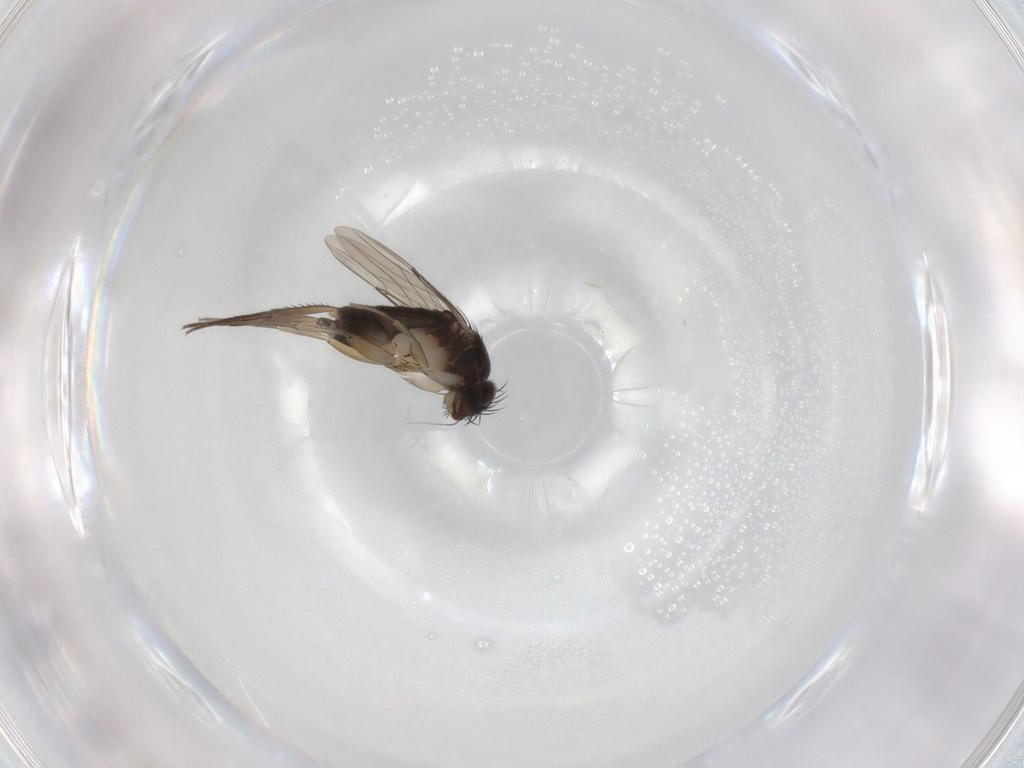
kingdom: Animalia
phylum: Arthropoda
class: Insecta
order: Diptera
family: Phoridae
